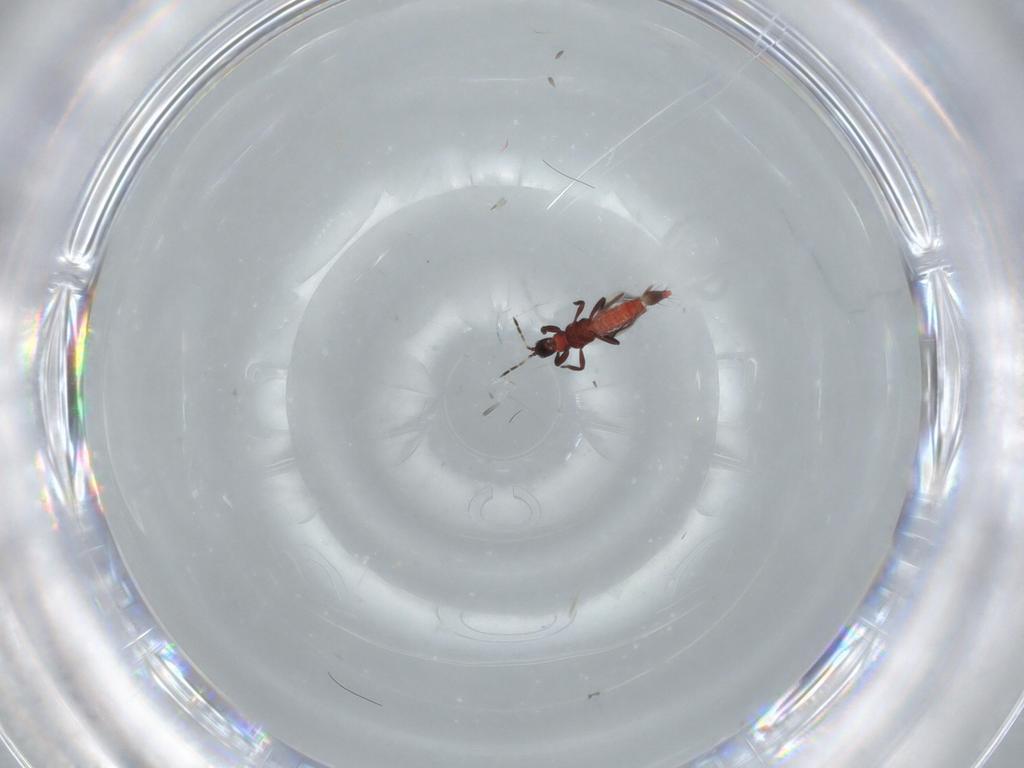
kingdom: Animalia
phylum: Arthropoda
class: Insecta
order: Thysanoptera
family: Aeolothripidae
